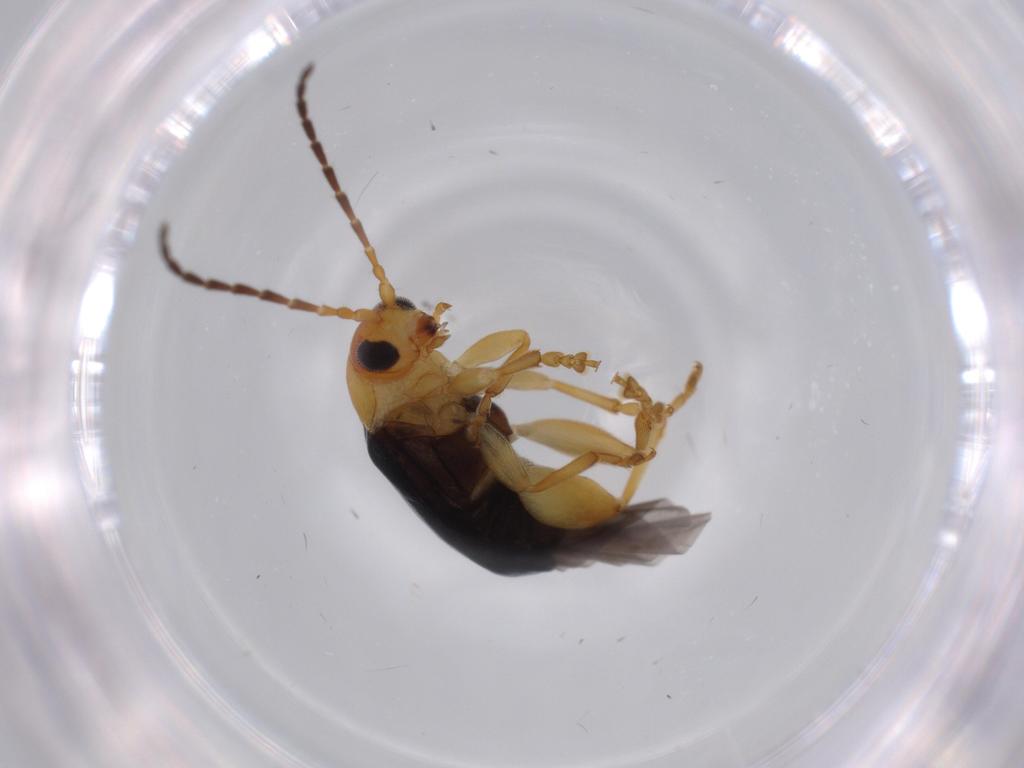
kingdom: Animalia
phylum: Arthropoda
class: Insecta
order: Coleoptera
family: Chrysomelidae
